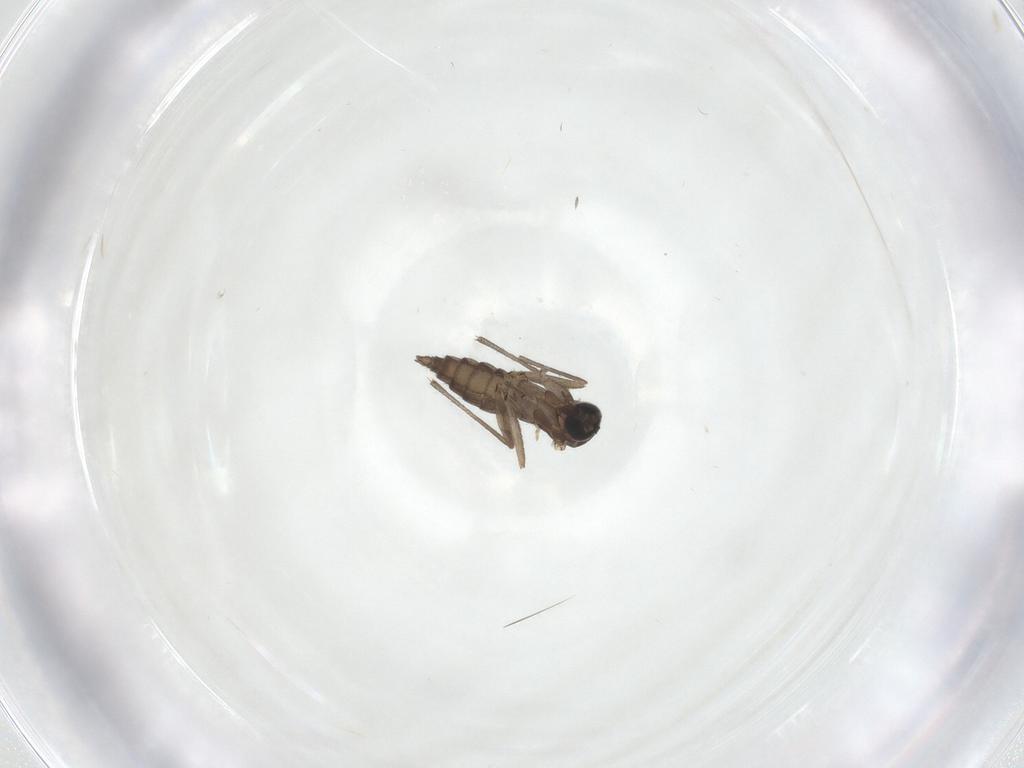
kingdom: Animalia
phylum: Arthropoda
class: Insecta
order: Diptera
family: Sciaridae
